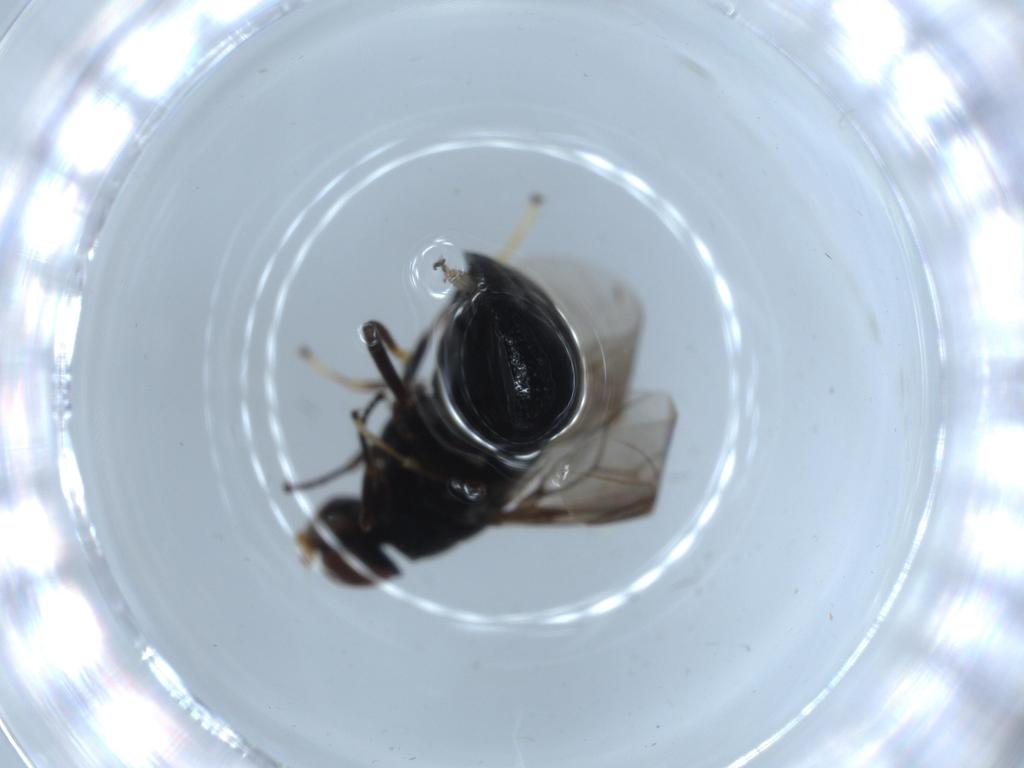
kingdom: Animalia
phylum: Arthropoda
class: Insecta
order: Diptera
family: Stratiomyidae
